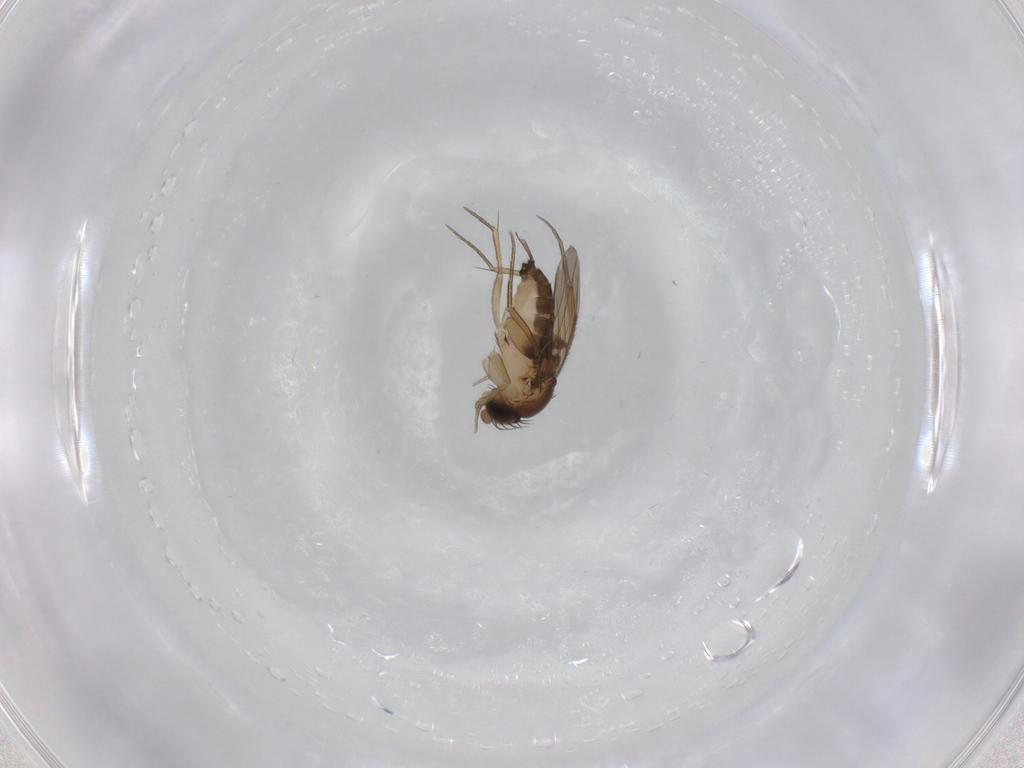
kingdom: Animalia
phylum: Arthropoda
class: Insecta
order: Diptera
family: Phoridae
